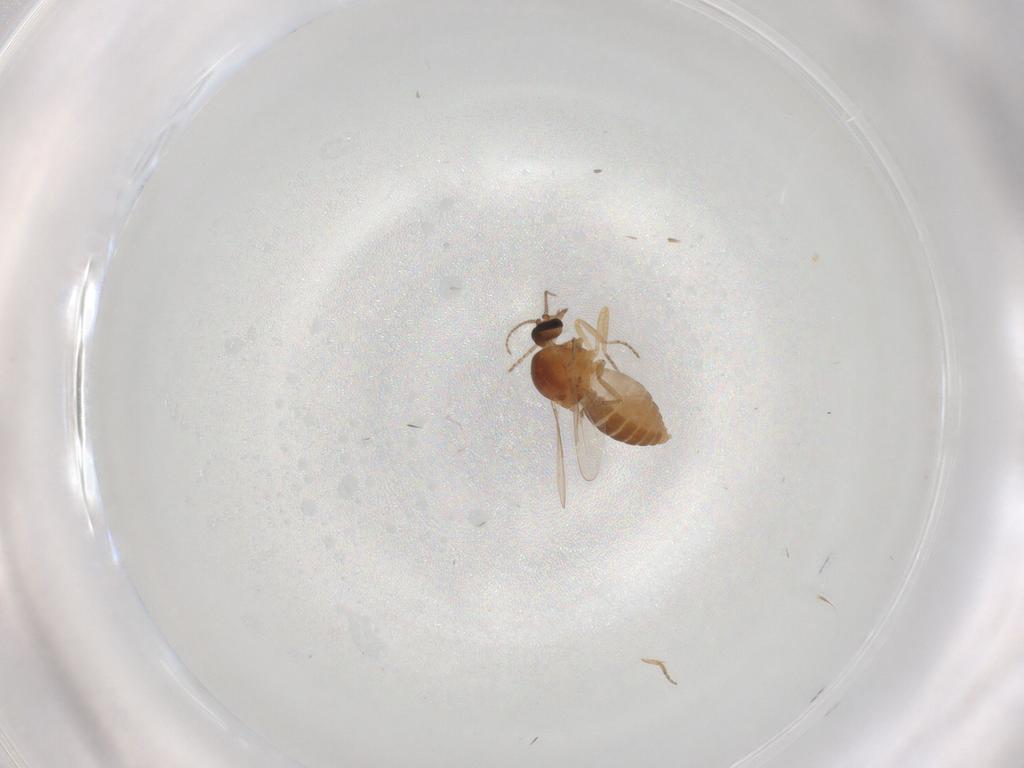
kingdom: Animalia
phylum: Arthropoda
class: Insecta
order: Diptera
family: Ceratopogonidae
